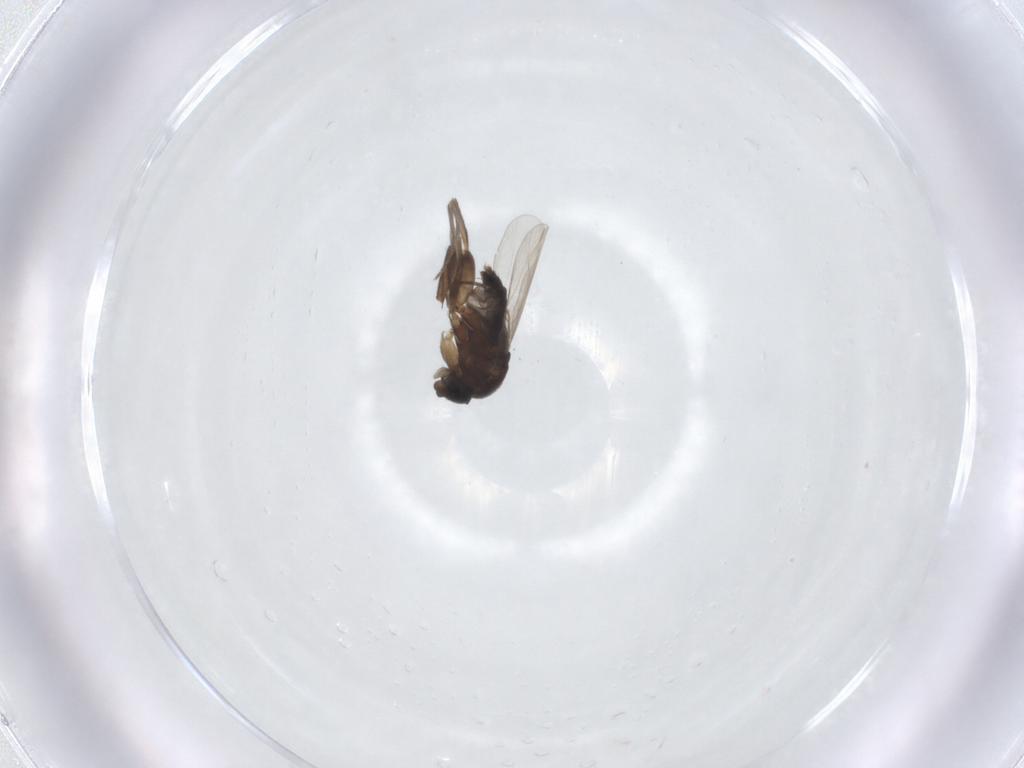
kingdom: Animalia
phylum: Arthropoda
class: Insecta
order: Diptera
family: Phoridae
